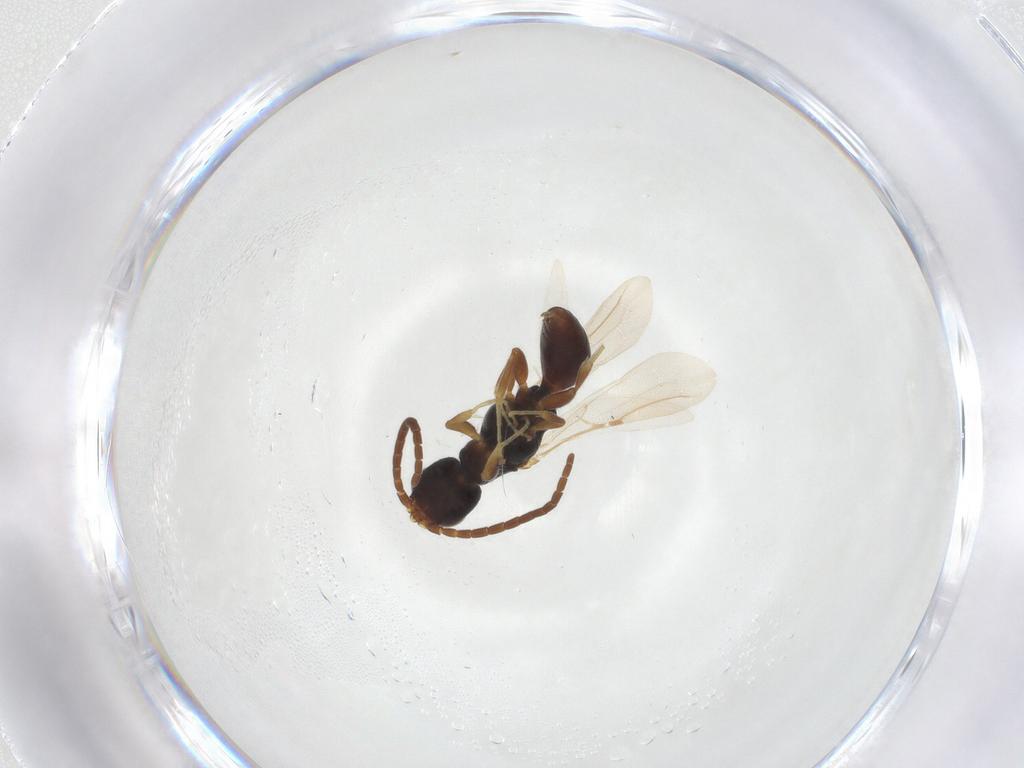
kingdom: Animalia
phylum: Arthropoda
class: Insecta
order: Hymenoptera
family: Bethylidae
